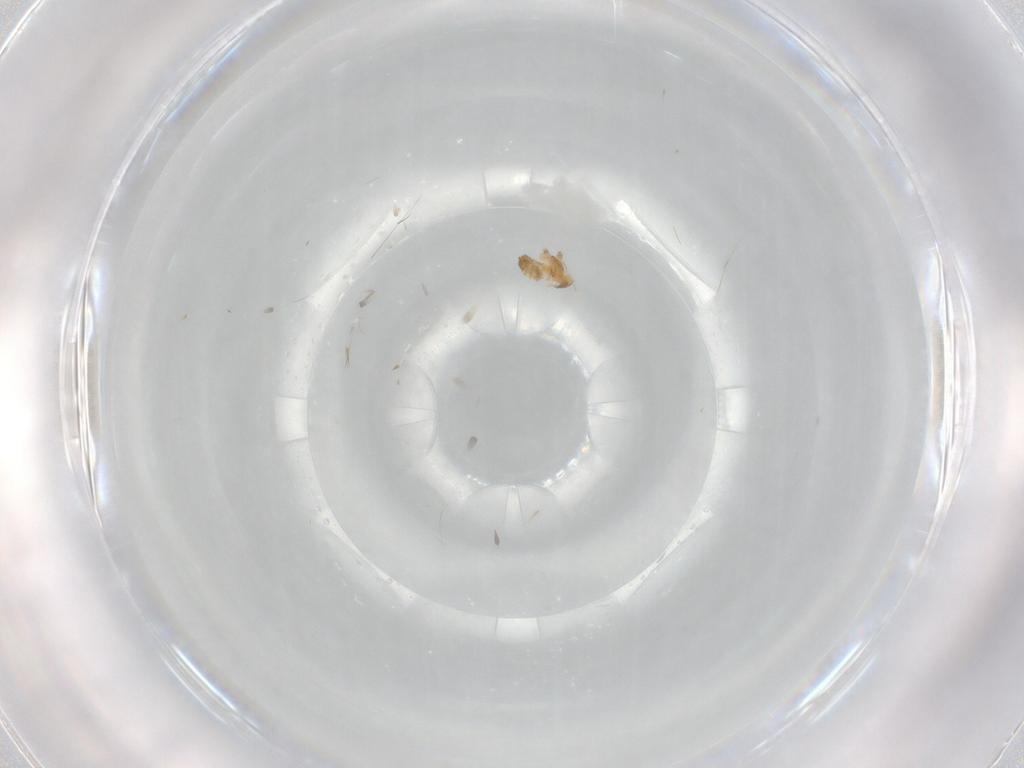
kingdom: Animalia
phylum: Arthropoda
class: Insecta
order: Diptera
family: Cecidomyiidae
